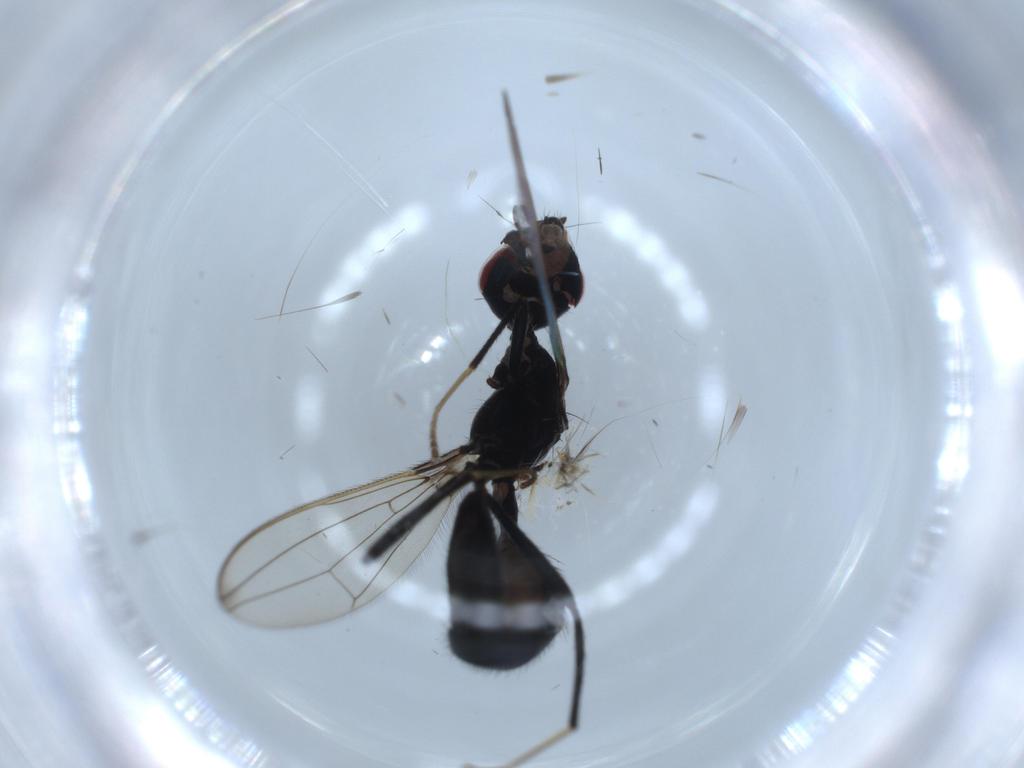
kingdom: Animalia
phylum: Arthropoda
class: Insecta
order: Diptera
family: Richardiidae
